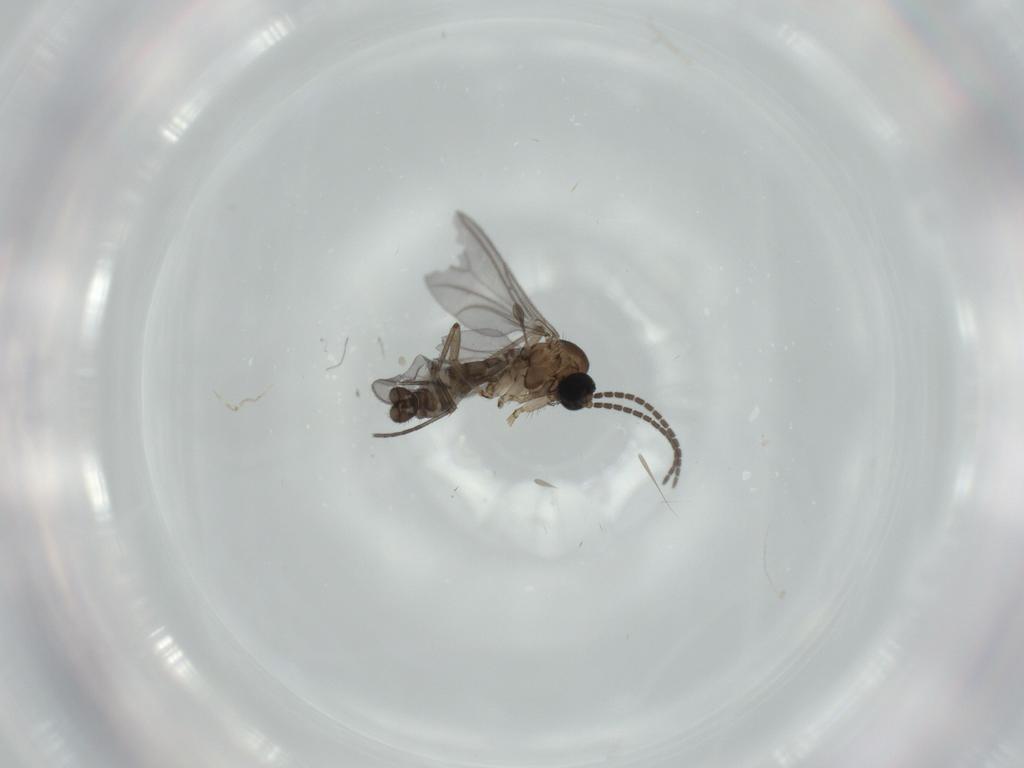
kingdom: Animalia
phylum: Arthropoda
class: Insecta
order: Diptera
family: Sciaridae
